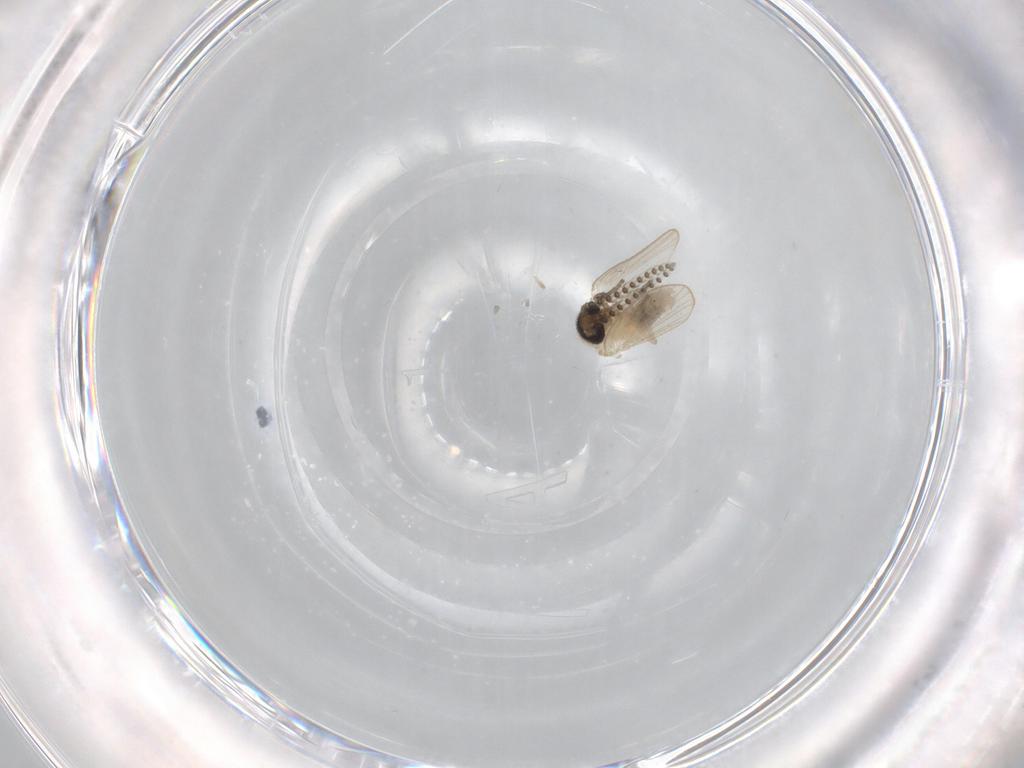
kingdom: Animalia
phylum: Arthropoda
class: Insecta
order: Diptera
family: Psychodidae
